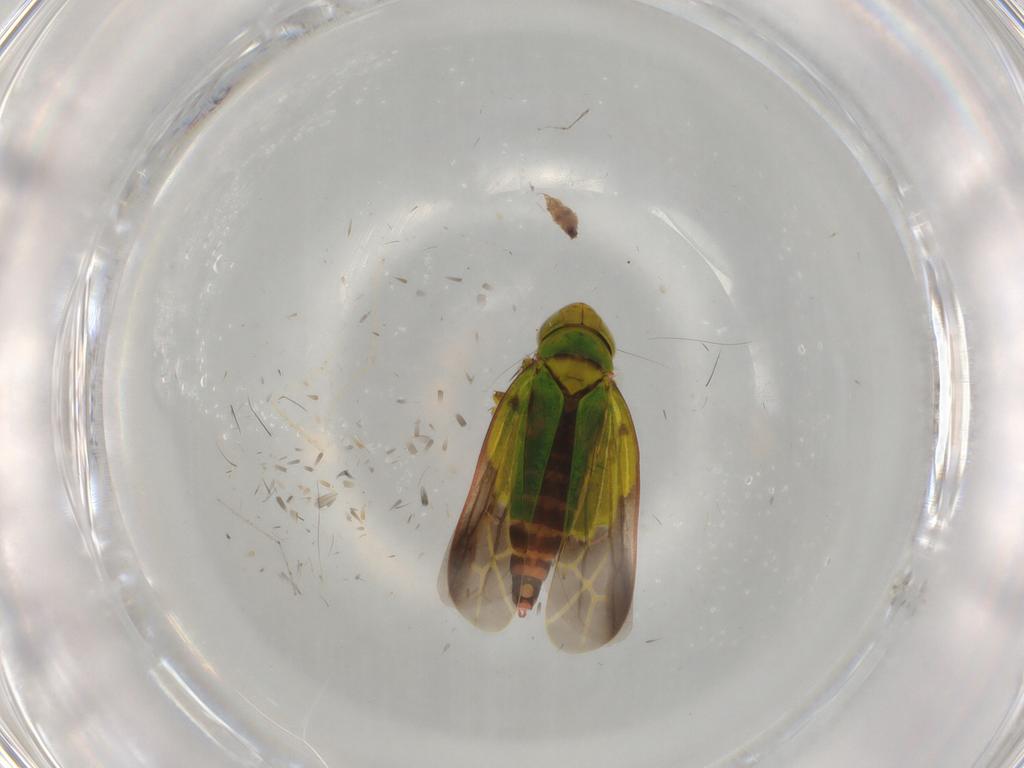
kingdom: Animalia
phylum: Arthropoda
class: Insecta
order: Hemiptera
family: Cicadellidae
